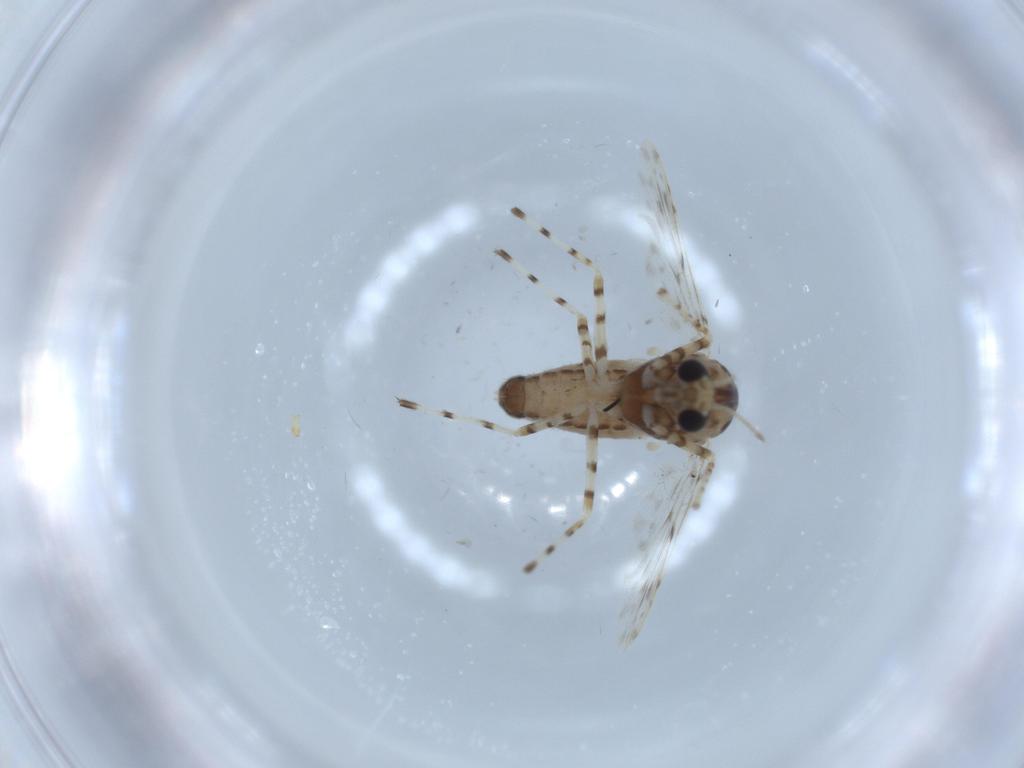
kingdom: Animalia
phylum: Arthropoda
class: Insecta
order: Diptera
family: Chironomidae
